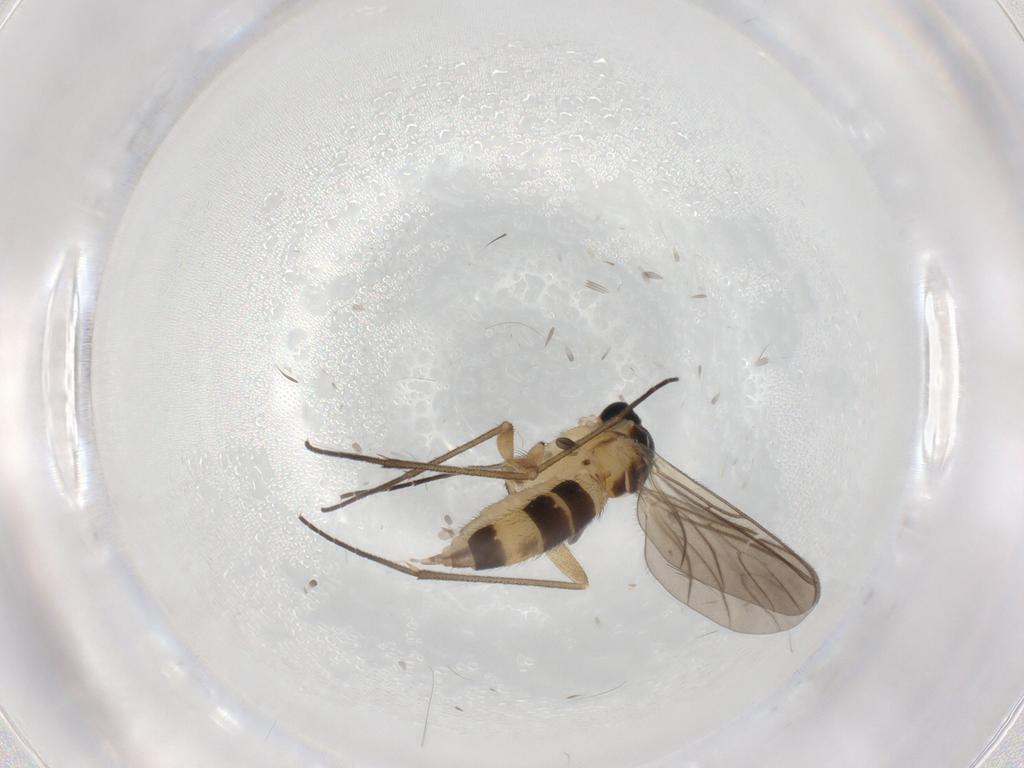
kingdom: Animalia
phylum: Arthropoda
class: Insecta
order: Diptera
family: Sciaridae
